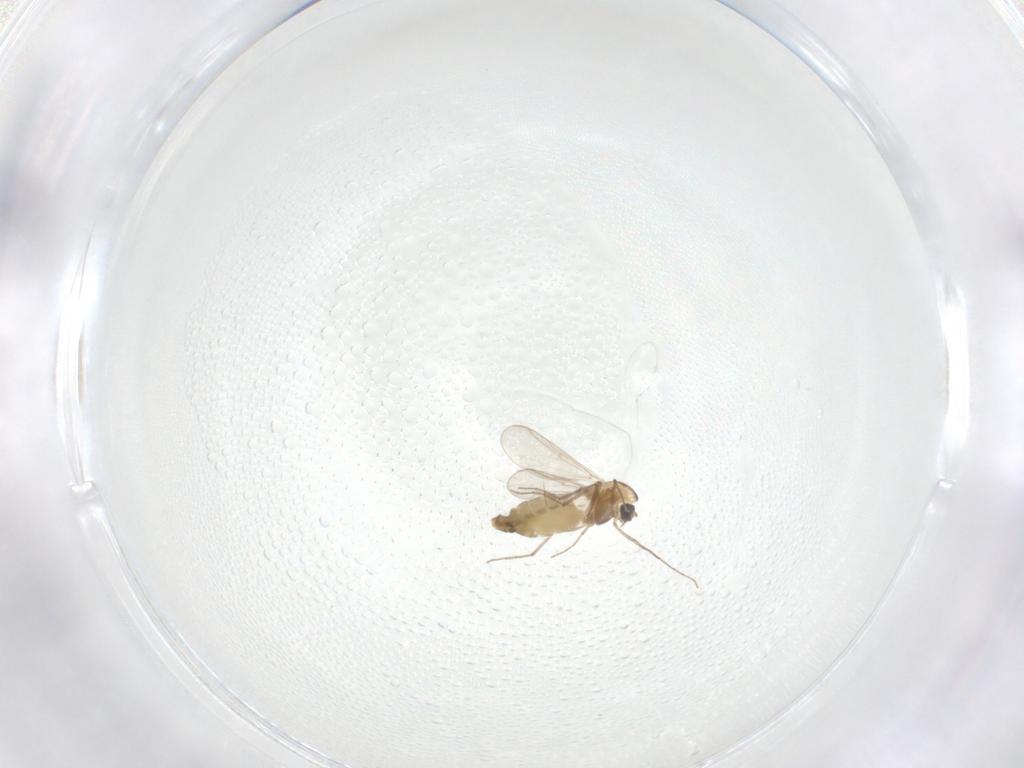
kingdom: Animalia
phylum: Arthropoda
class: Insecta
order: Diptera
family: Chironomidae
